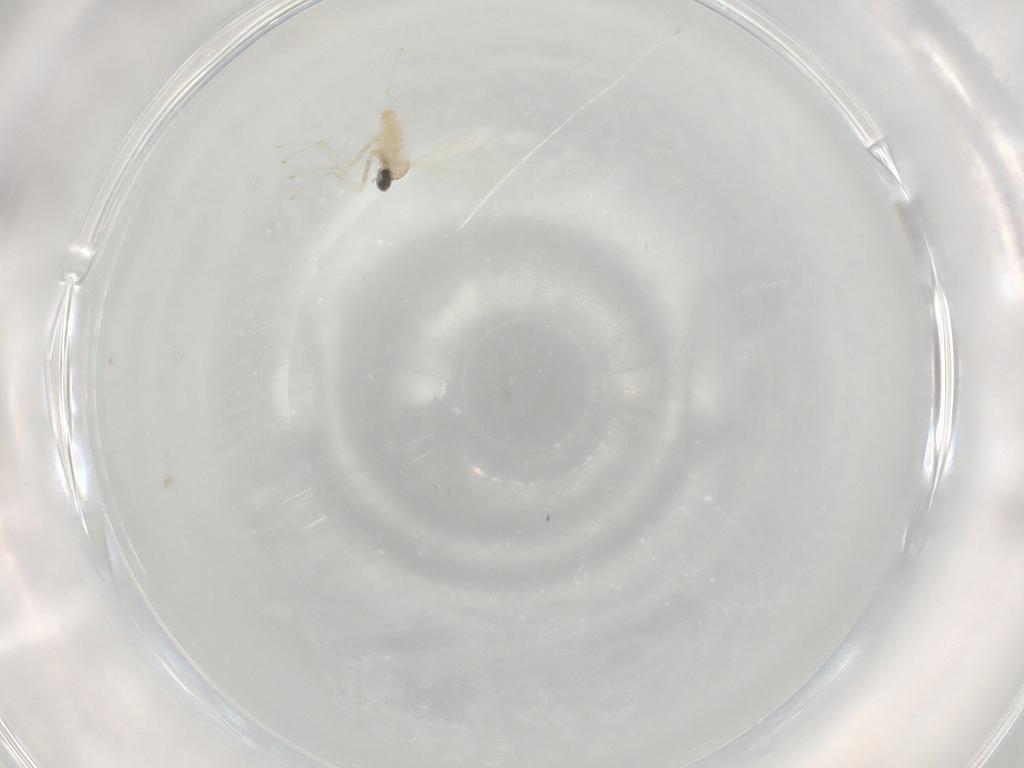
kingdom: Animalia
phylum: Arthropoda
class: Insecta
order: Diptera
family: Cecidomyiidae
